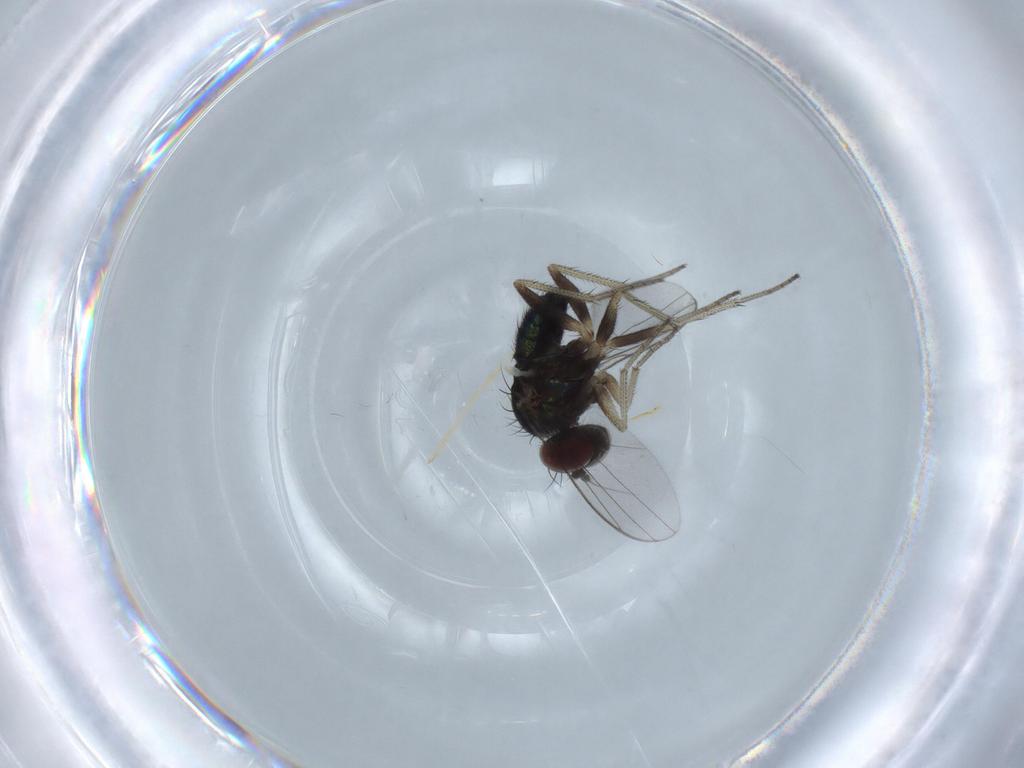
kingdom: Animalia
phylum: Arthropoda
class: Insecta
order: Diptera
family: Chironomidae
